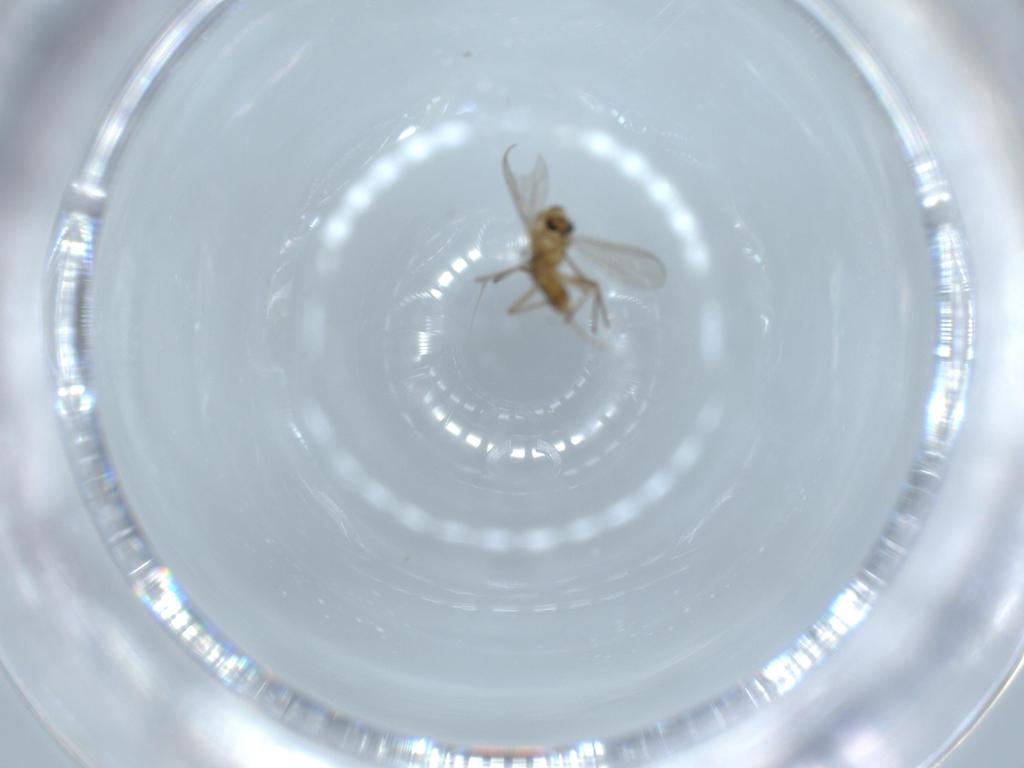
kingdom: Animalia
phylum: Arthropoda
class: Insecta
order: Diptera
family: Chironomidae
